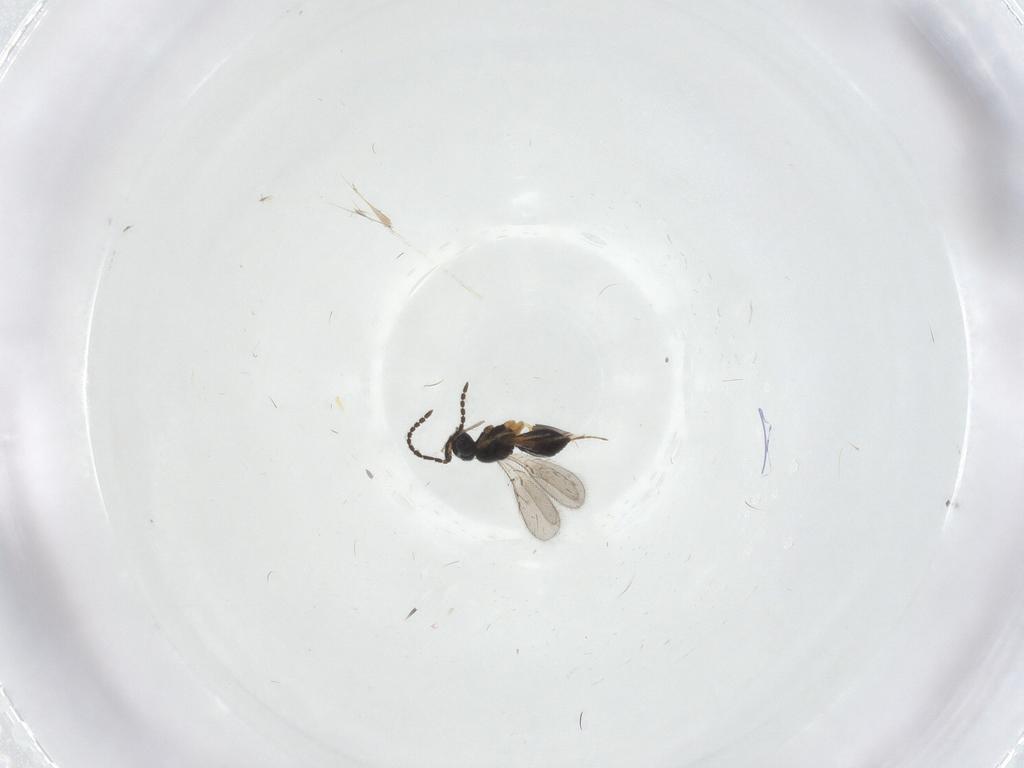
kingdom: Animalia
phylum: Arthropoda
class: Insecta
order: Hymenoptera
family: Scelionidae
